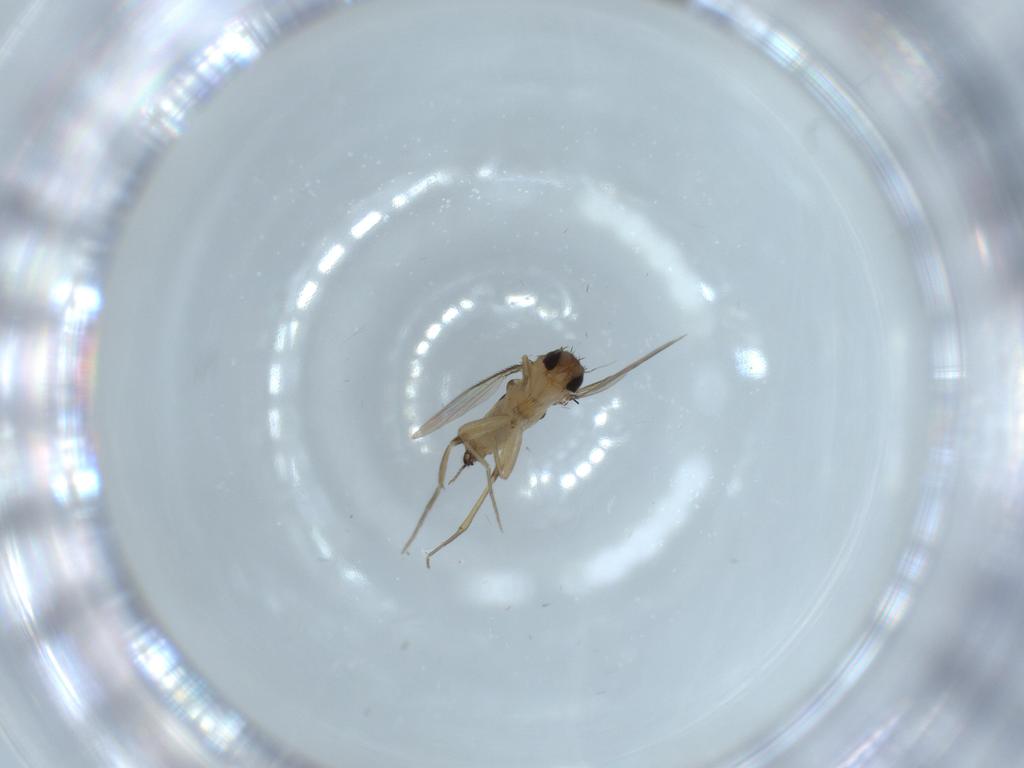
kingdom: Animalia
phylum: Arthropoda
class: Insecta
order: Diptera
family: Phoridae
